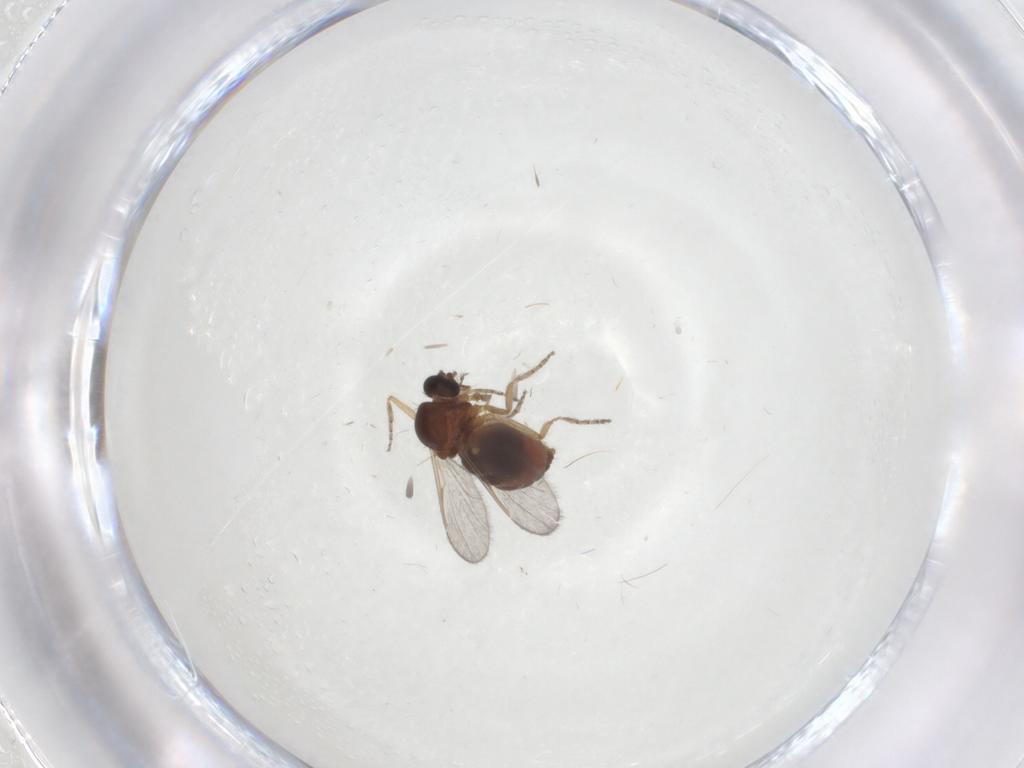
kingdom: Animalia
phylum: Arthropoda
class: Insecta
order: Diptera
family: Ceratopogonidae
